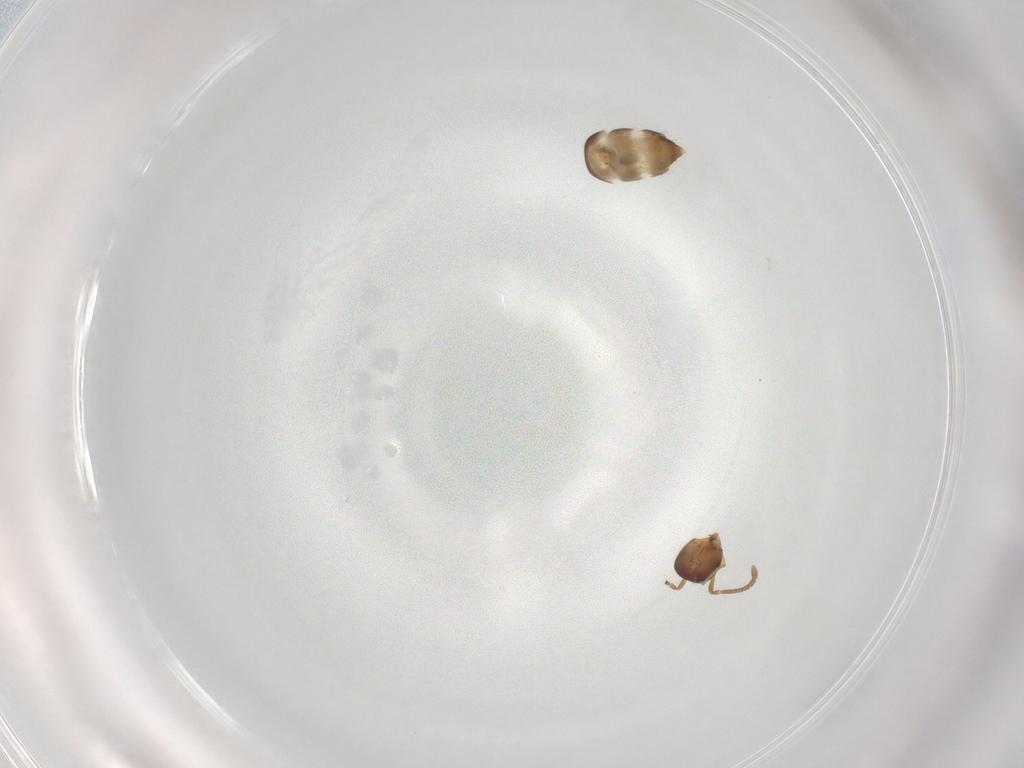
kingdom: Animalia
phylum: Arthropoda
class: Insecta
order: Hymenoptera
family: Formicidae
